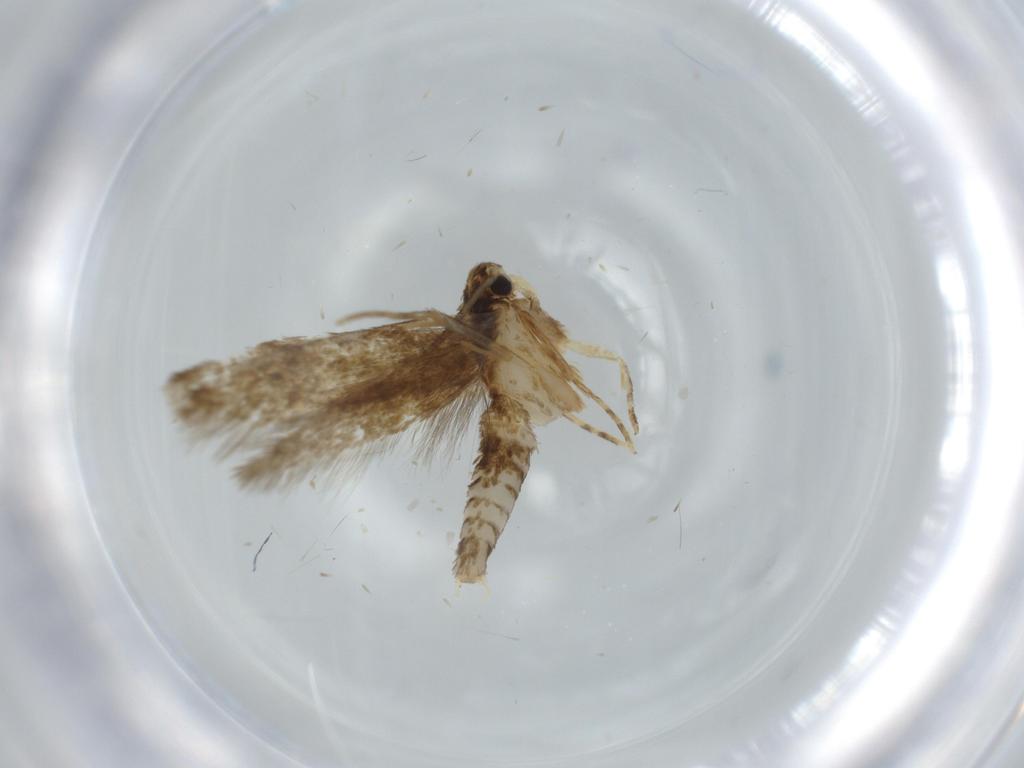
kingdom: Animalia
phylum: Arthropoda
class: Insecta
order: Lepidoptera
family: Tineidae
